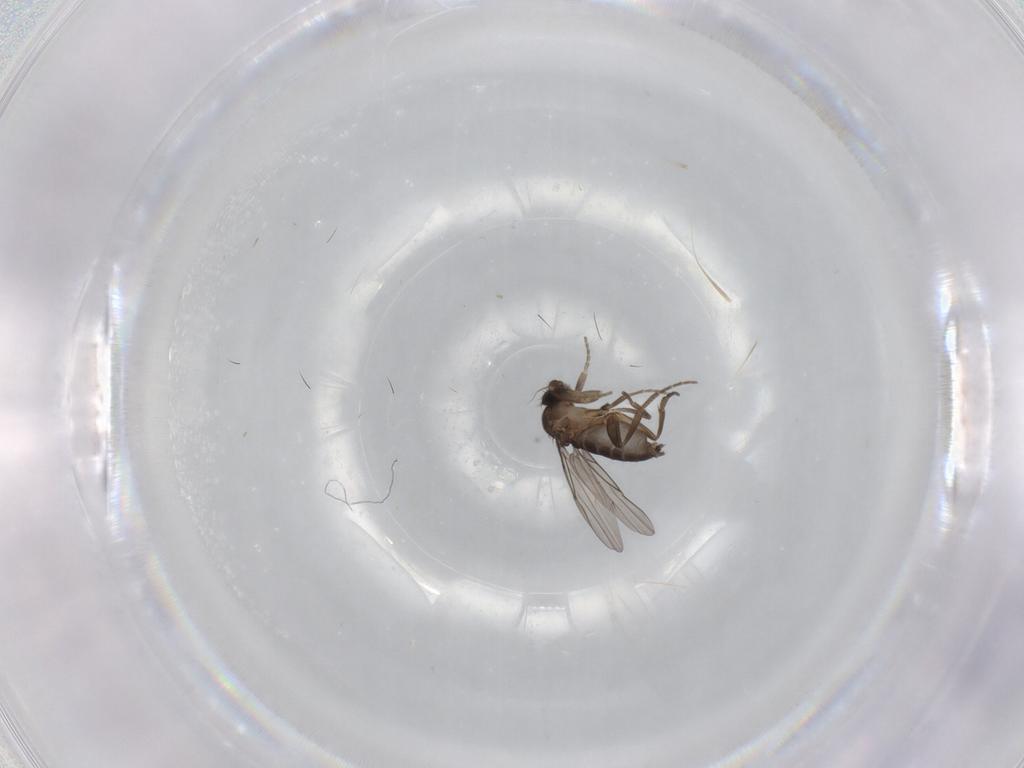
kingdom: Animalia
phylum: Arthropoda
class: Insecta
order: Diptera
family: Phoridae
